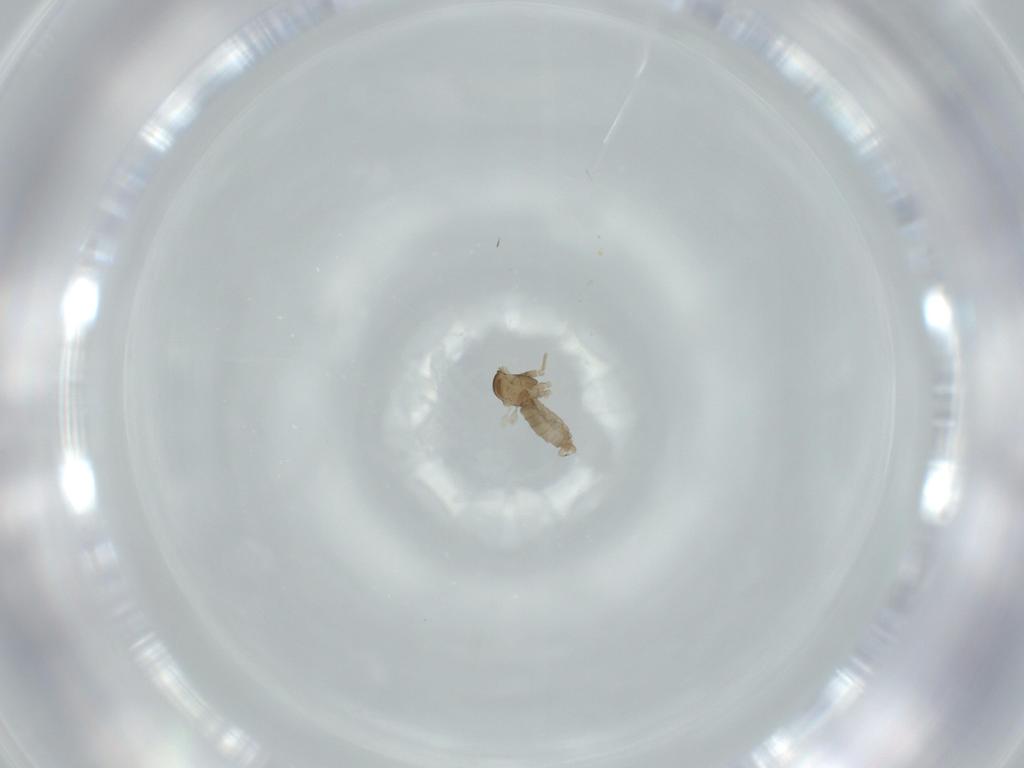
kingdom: Animalia
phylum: Arthropoda
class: Insecta
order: Diptera
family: Cecidomyiidae
